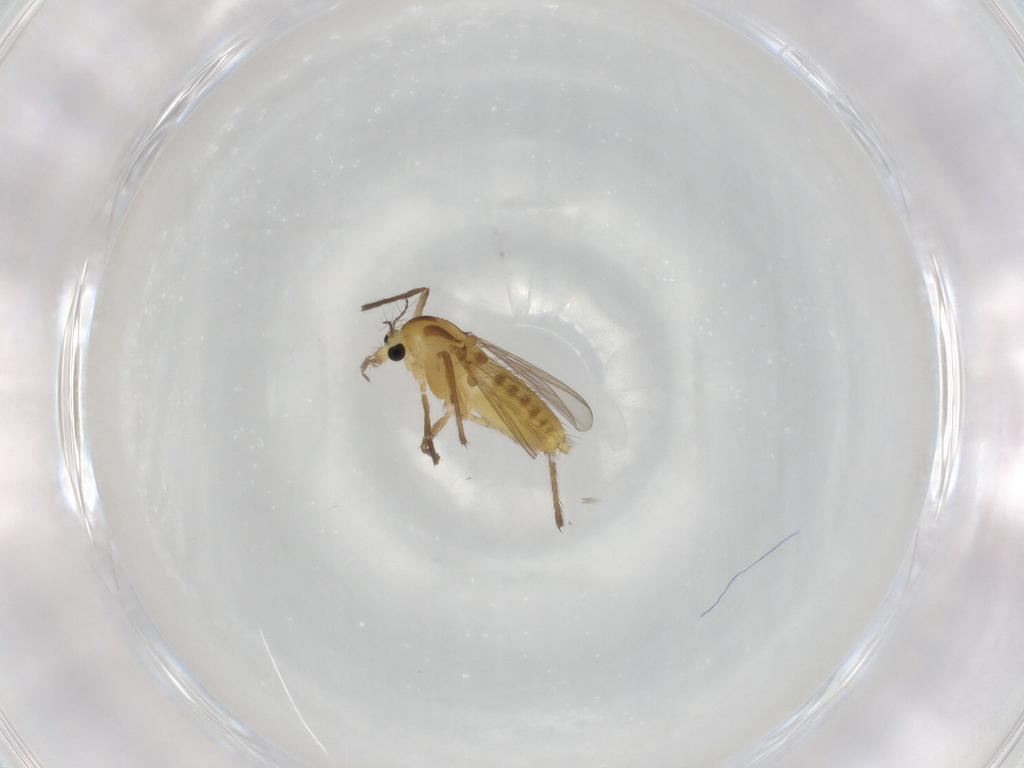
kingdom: Animalia
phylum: Arthropoda
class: Insecta
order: Diptera
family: Chironomidae
